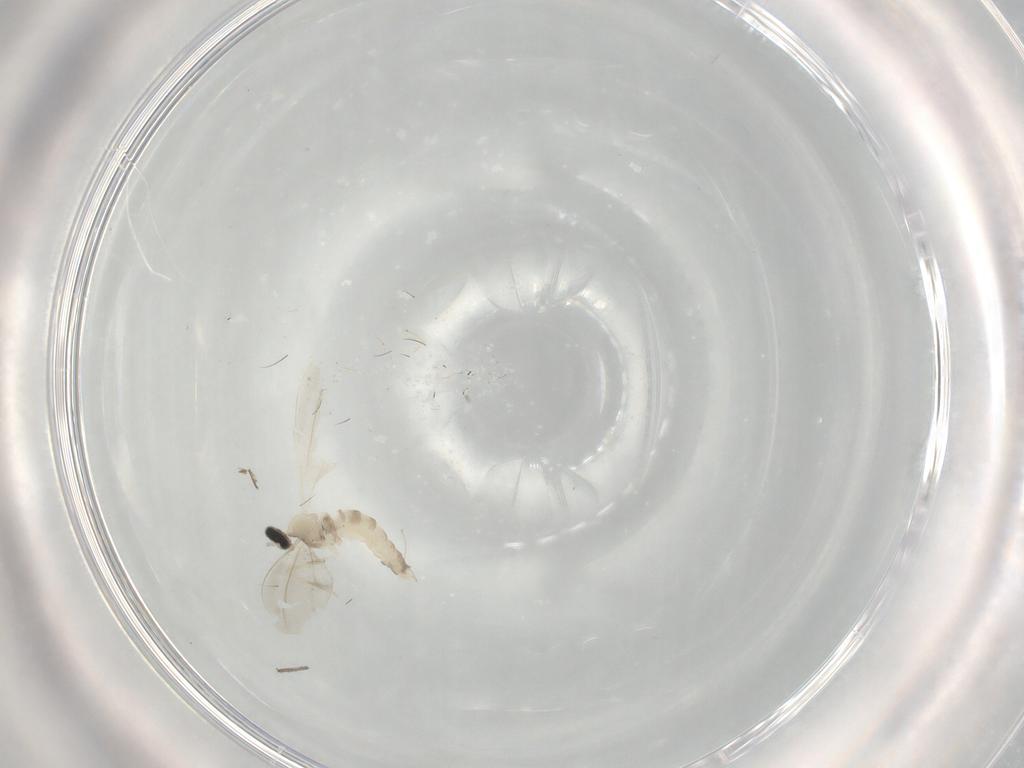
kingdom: Animalia
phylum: Arthropoda
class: Insecta
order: Diptera
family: Cecidomyiidae
